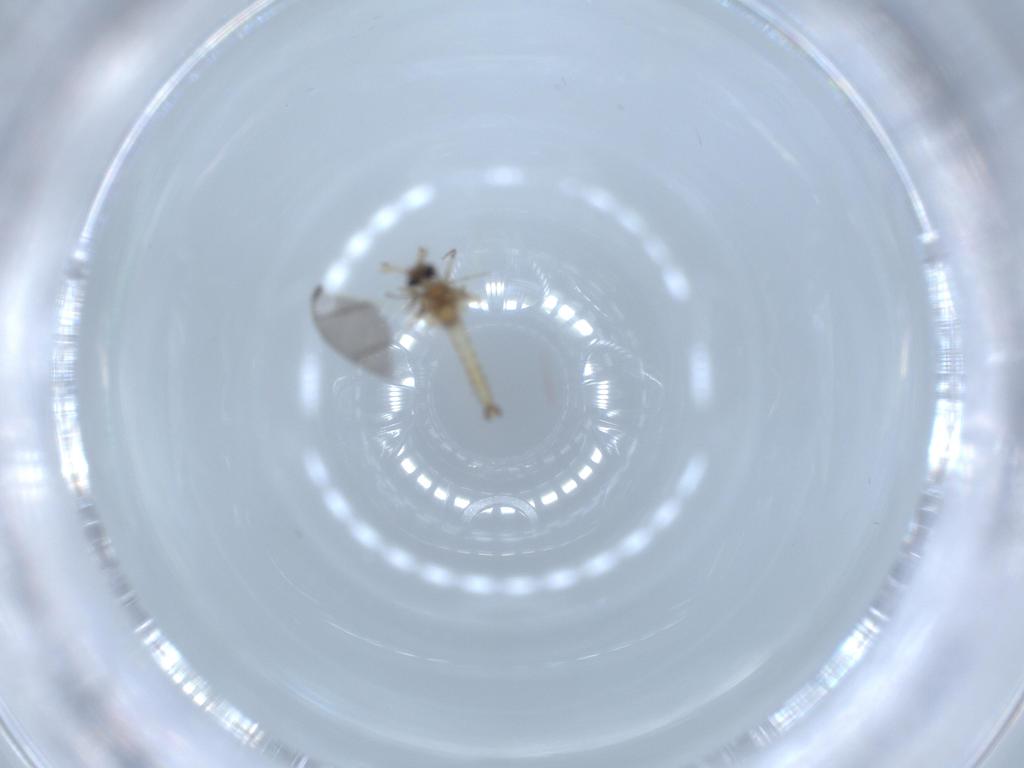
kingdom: Animalia
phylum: Arthropoda
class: Insecta
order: Diptera
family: Ceratopogonidae
